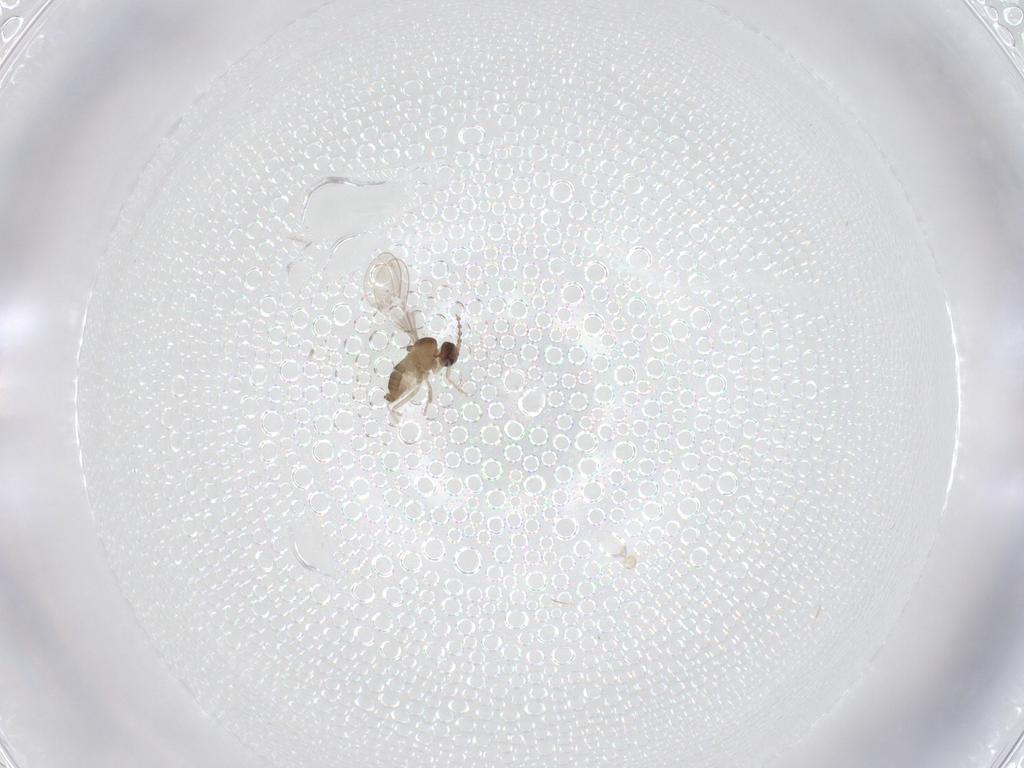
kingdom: Animalia
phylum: Arthropoda
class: Insecta
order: Diptera
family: Cecidomyiidae
